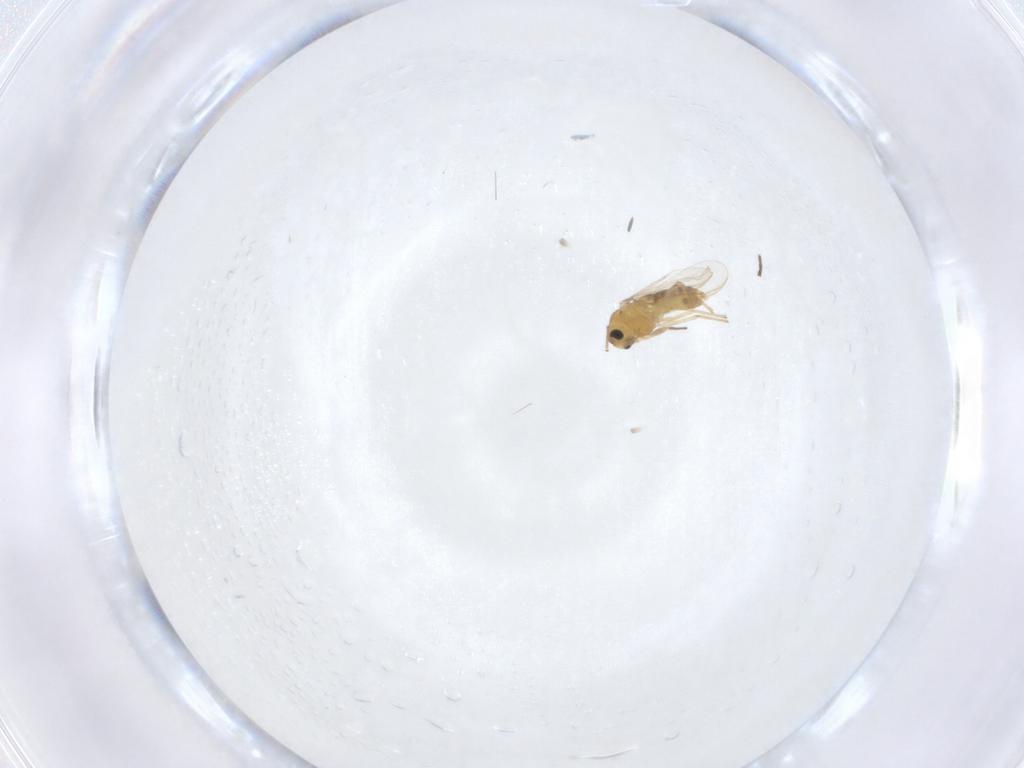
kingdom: Animalia
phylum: Arthropoda
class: Insecta
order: Diptera
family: Chironomidae
